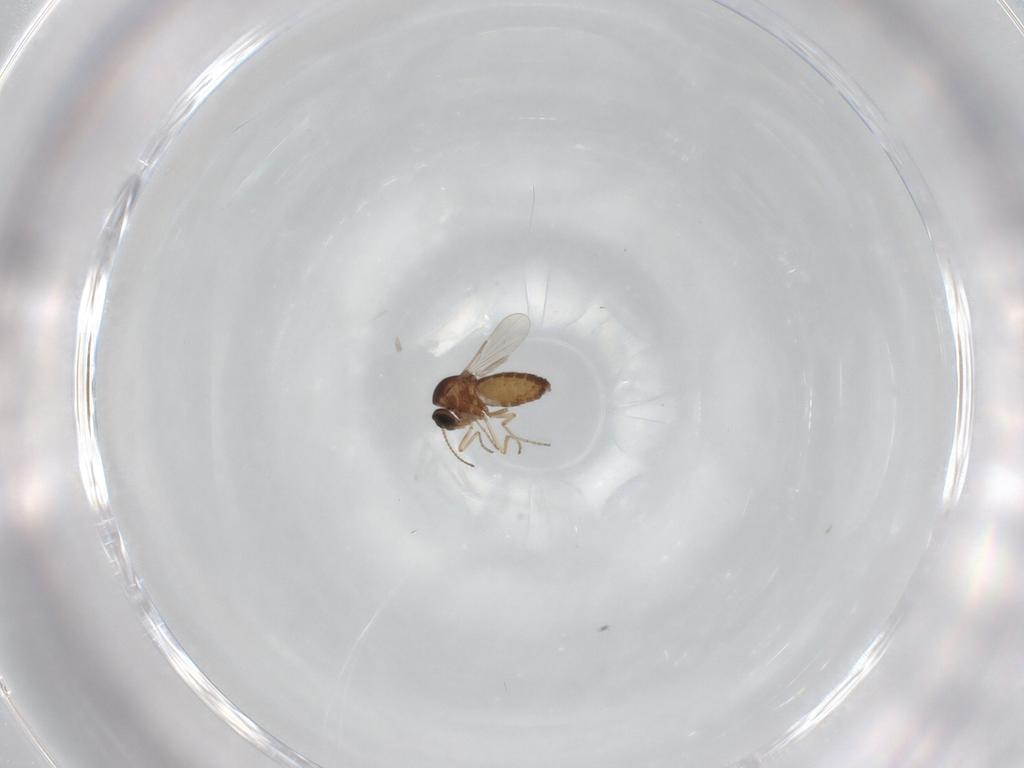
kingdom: Animalia
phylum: Arthropoda
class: Insecta
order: Diptera
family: Ceratopogonidae
